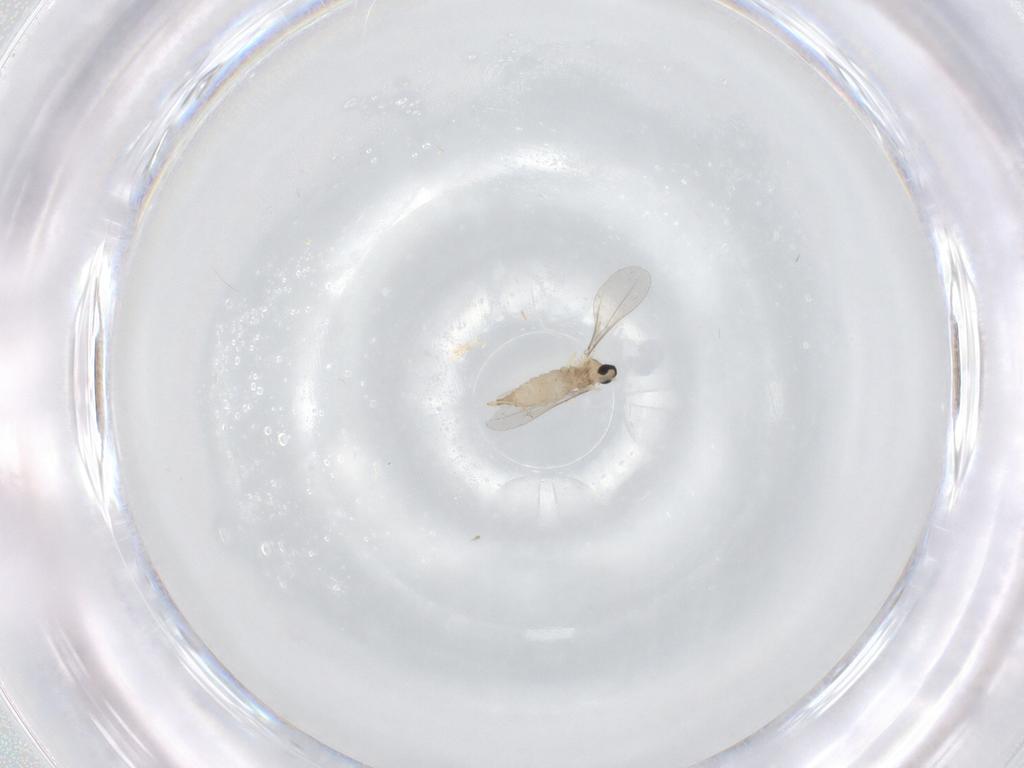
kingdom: Animalia
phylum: Arthropoda
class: Insecta
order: Diptera
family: Cecidomyiidae
